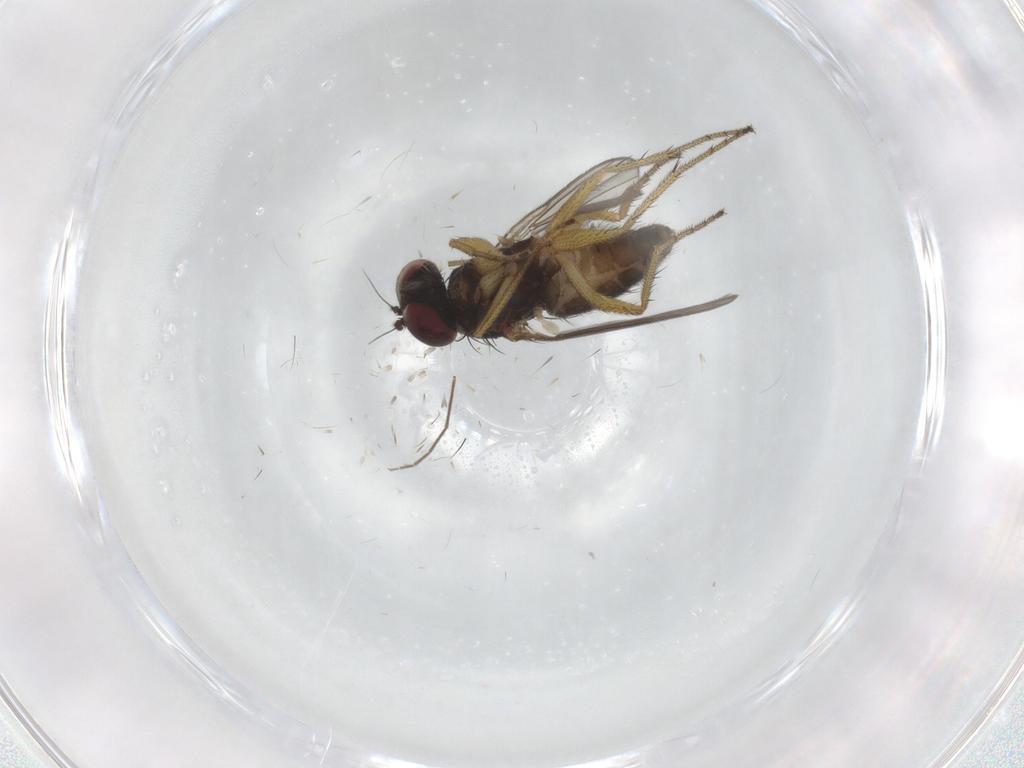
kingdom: Animalia
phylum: Arthropoda
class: Insecta
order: Diptera
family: Dolichopodidae
